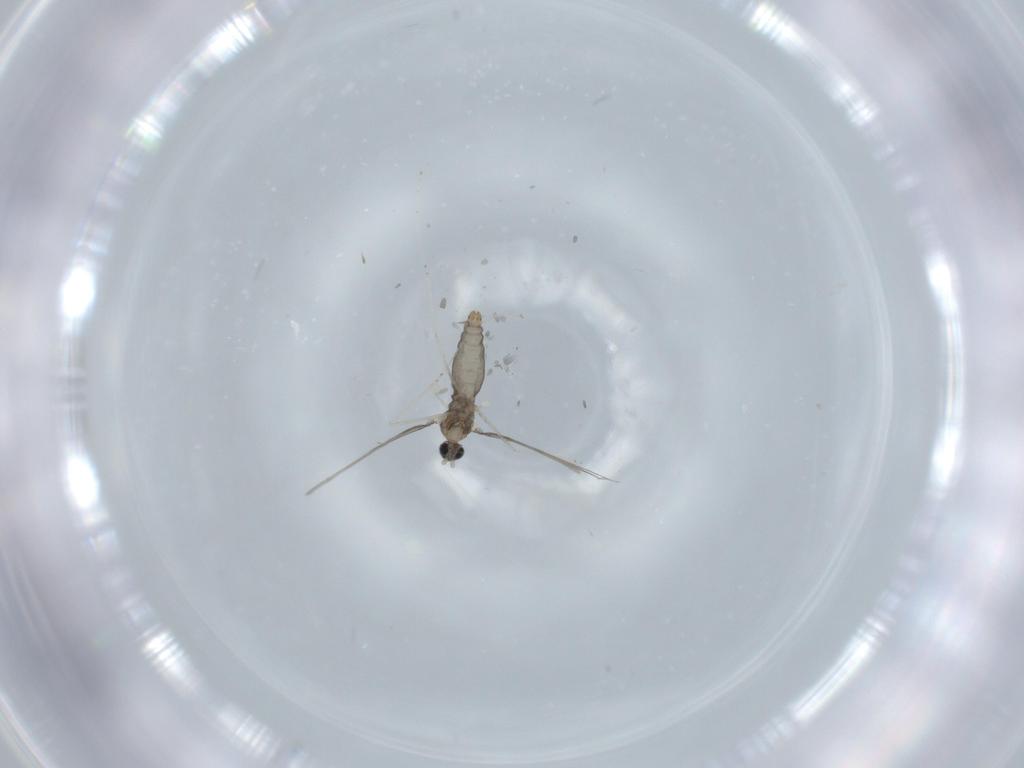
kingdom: Animalia
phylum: Arthropoda
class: Insecta
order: Diptera
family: Cecidomyiidae
